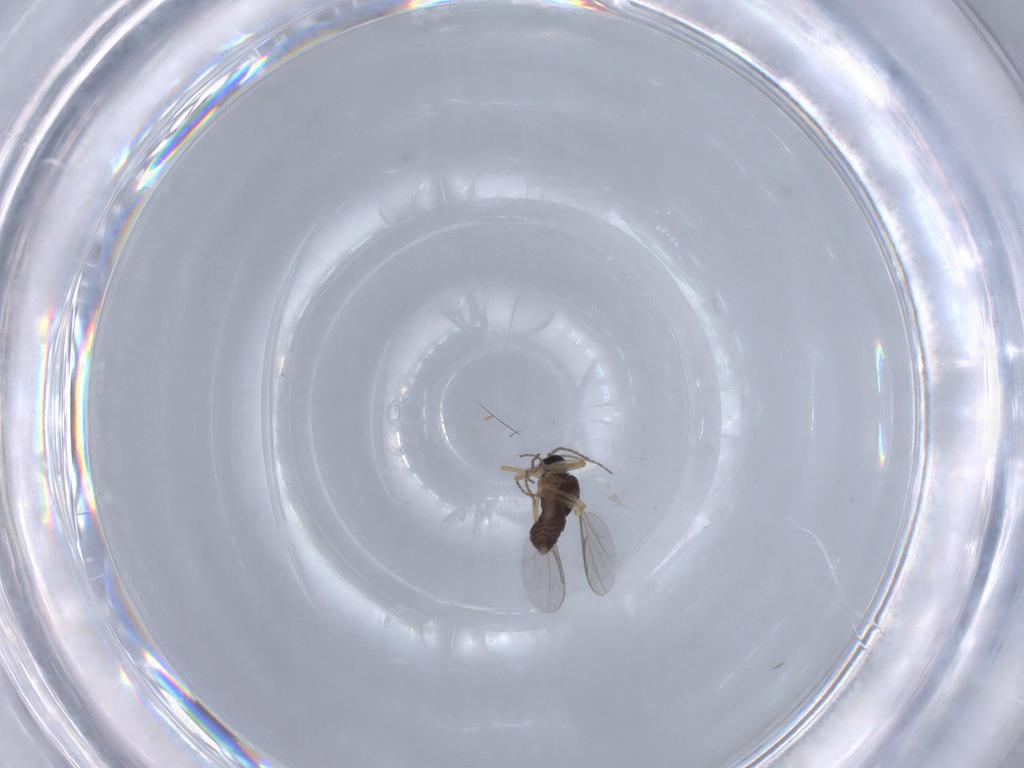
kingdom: Animalia
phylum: Arthropoda
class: Insecta
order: Diptera
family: Ceratopogonidae
